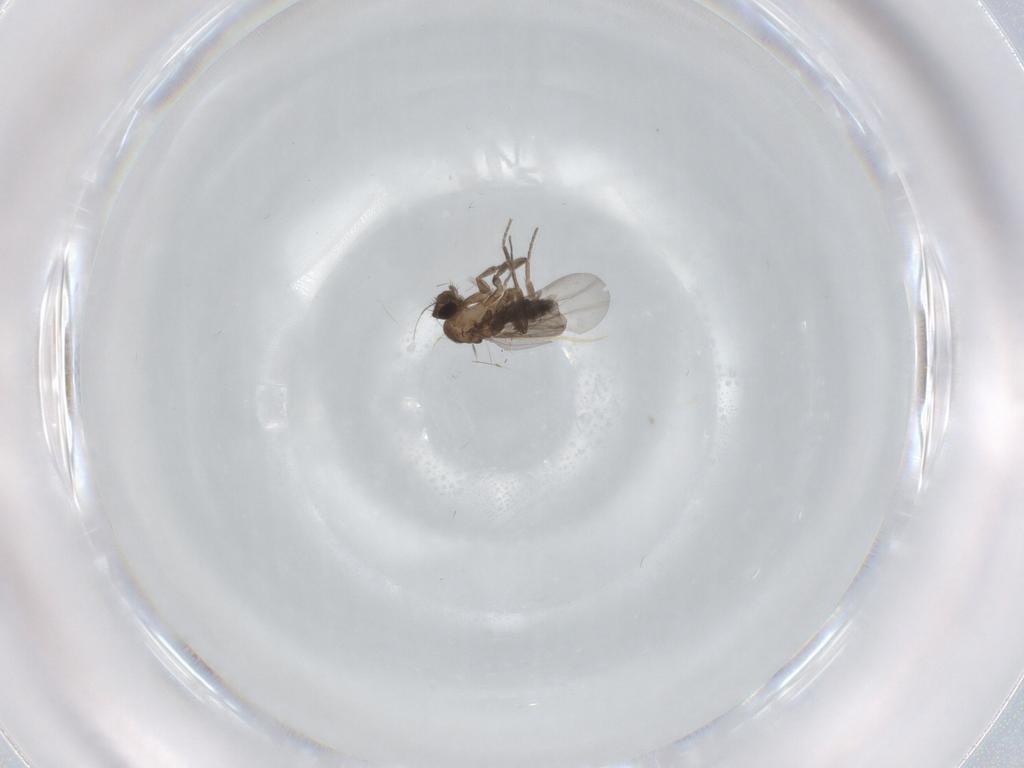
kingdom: Animalia
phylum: Arthropoda
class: Insecta
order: Diptera
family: Phoridae
